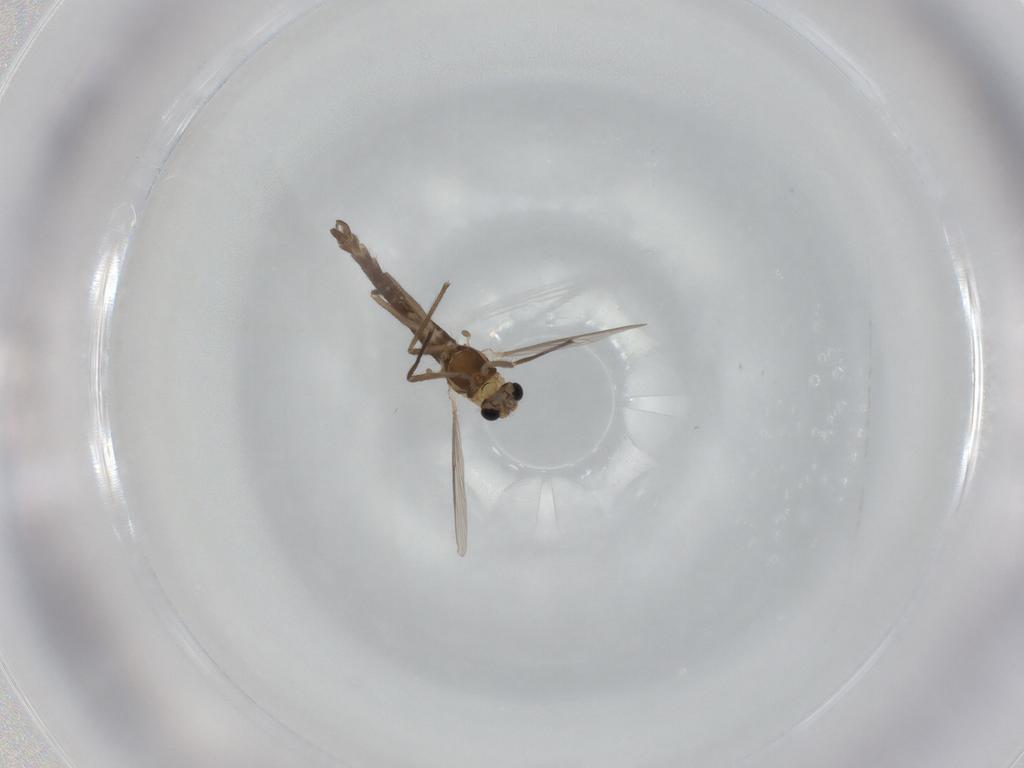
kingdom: Animalia
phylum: Arthropoda
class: Insecta
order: Diptera
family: Chironomidae
